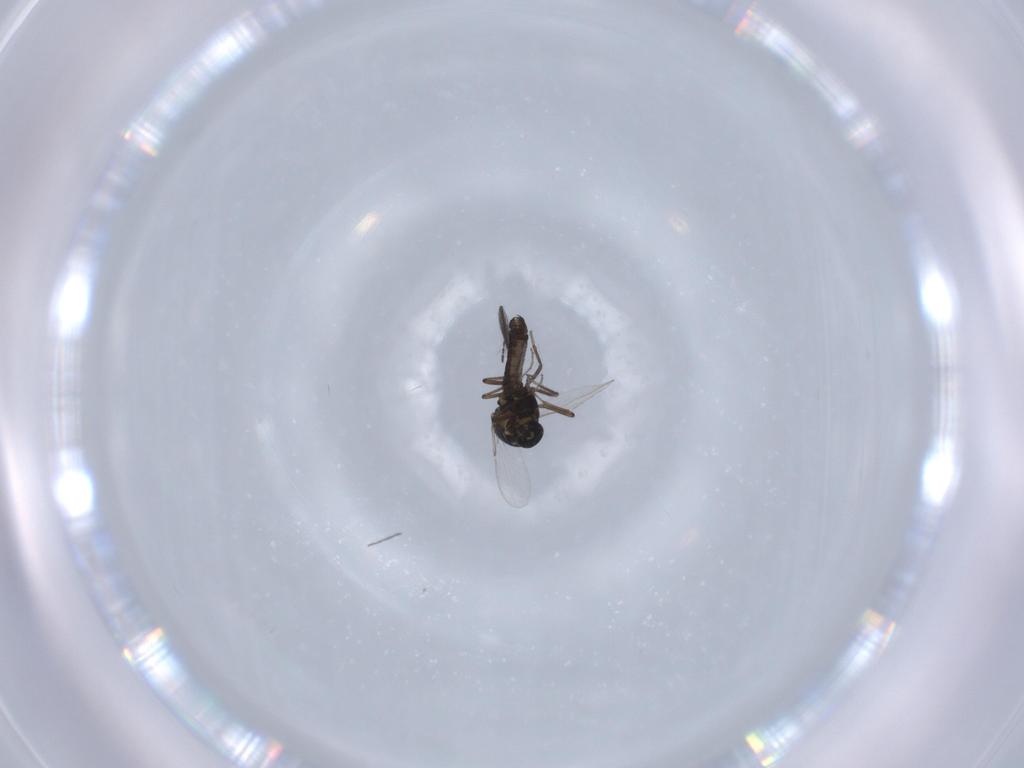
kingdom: Animalia
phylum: Arthropoda
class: Insecta
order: Diptera
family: Ceratopogonidae
